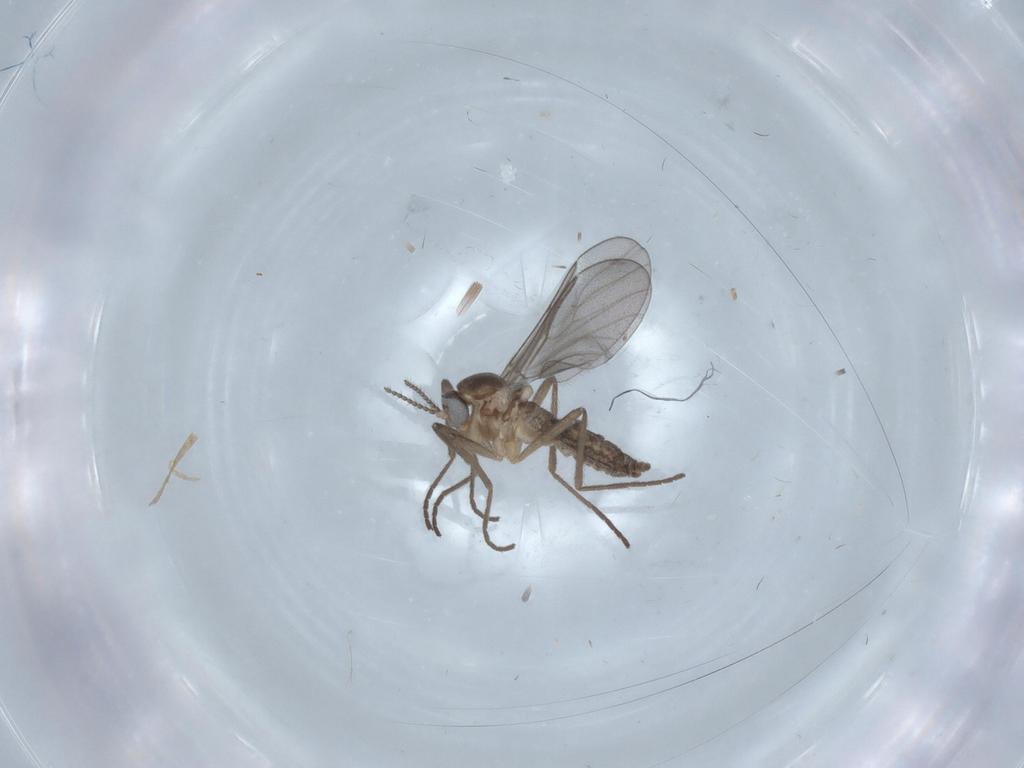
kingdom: Animalia
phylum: Arthropoda
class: Insecta
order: Diptera
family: Cecidomyiidae
